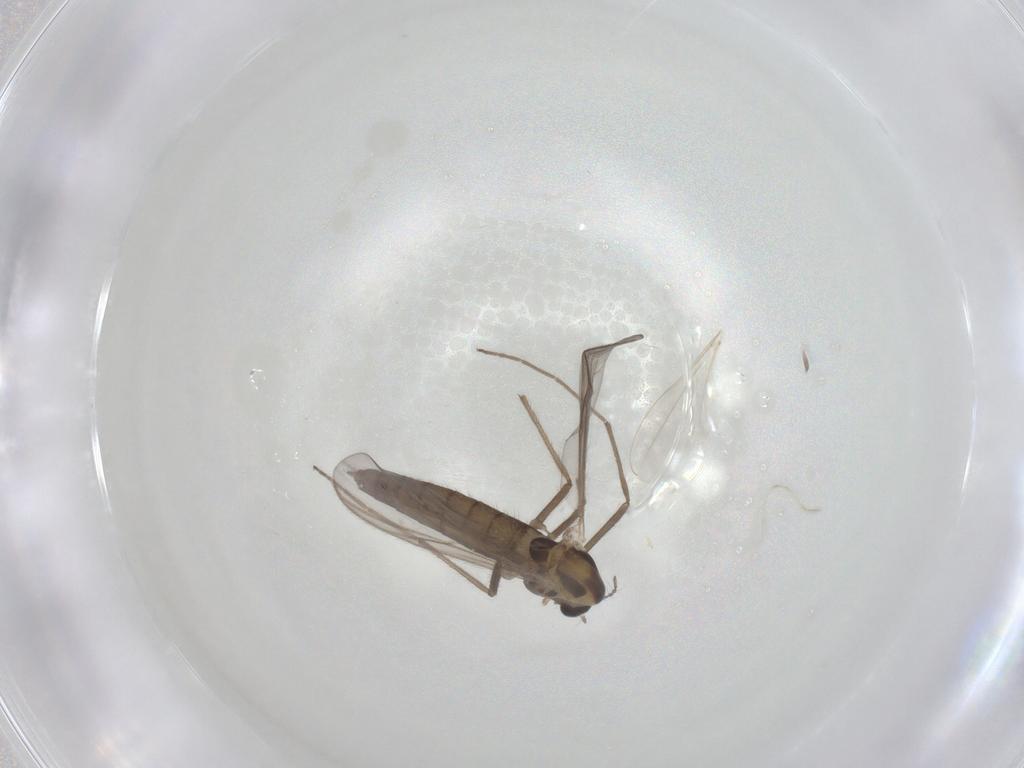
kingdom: Animalia
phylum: Arthropoda
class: Insecta
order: Diptera
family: Chironomidae
